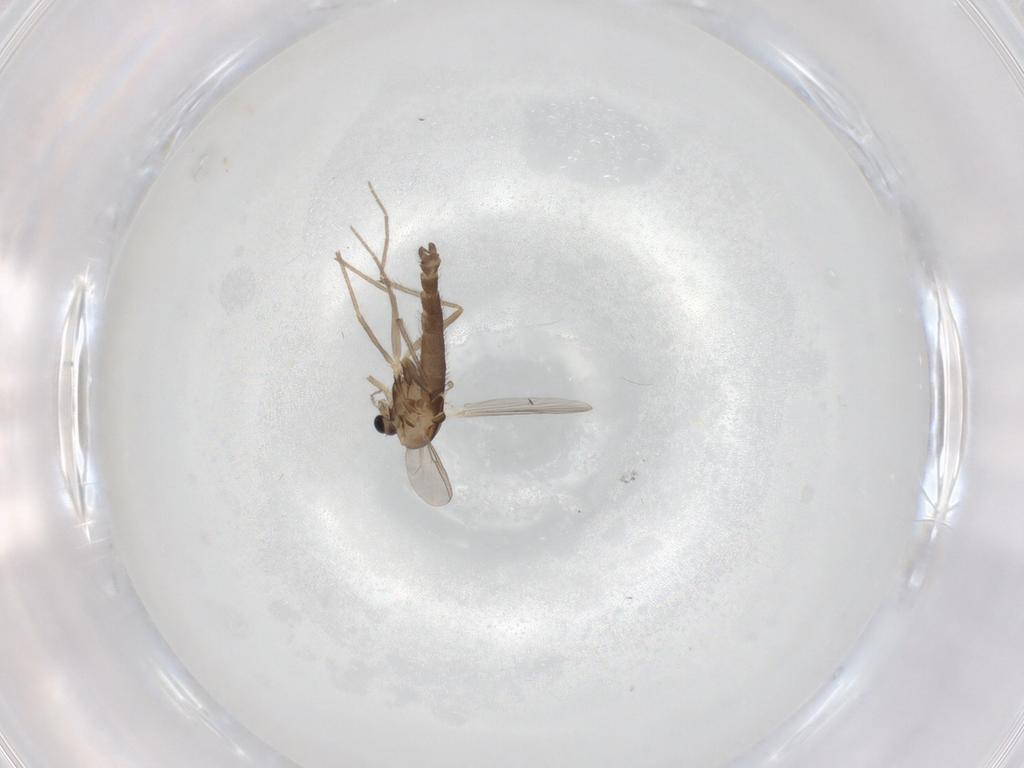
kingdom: Animalia
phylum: Arthropoda
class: Insecta
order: Diptera
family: Chironomidae
